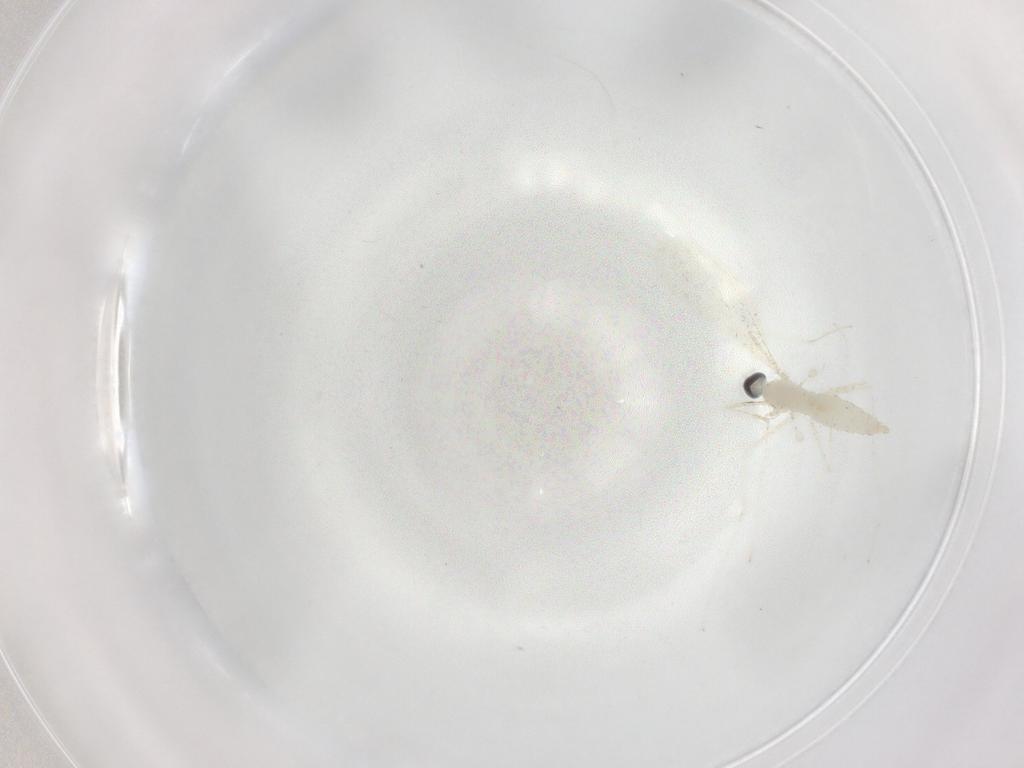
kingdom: Animalia
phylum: Arthropoda
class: Insecta
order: Diptera
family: Cecidomyiidae
